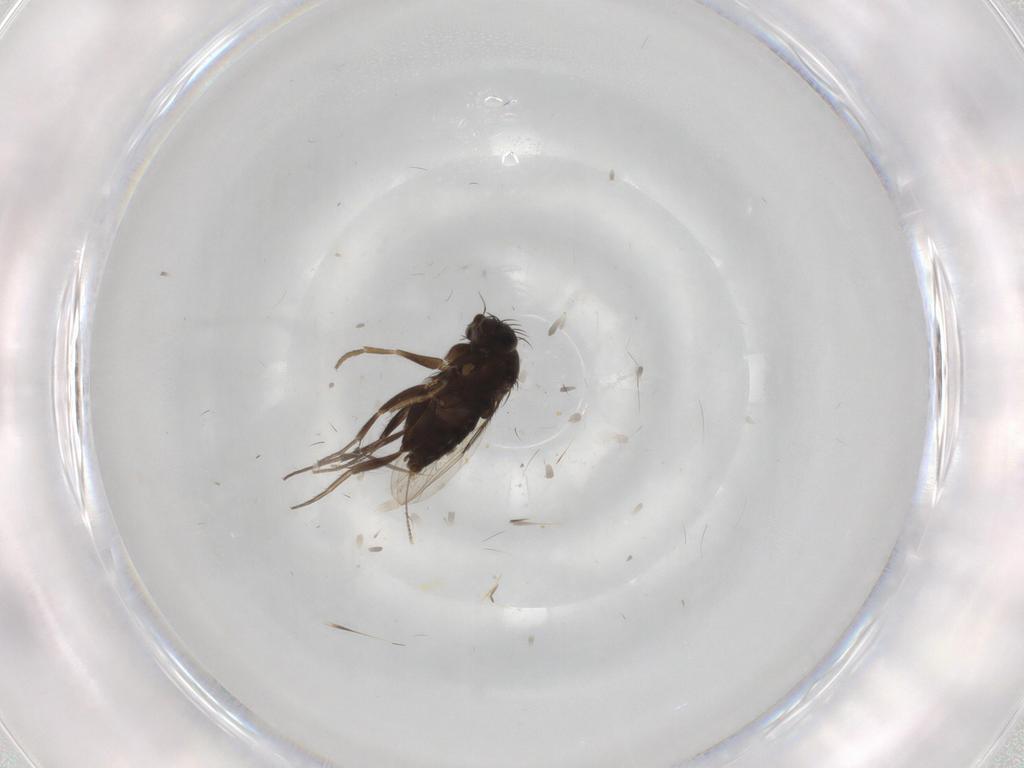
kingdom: Animalia
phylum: Arthropoda
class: Insecta
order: Diptera
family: Phoridae
